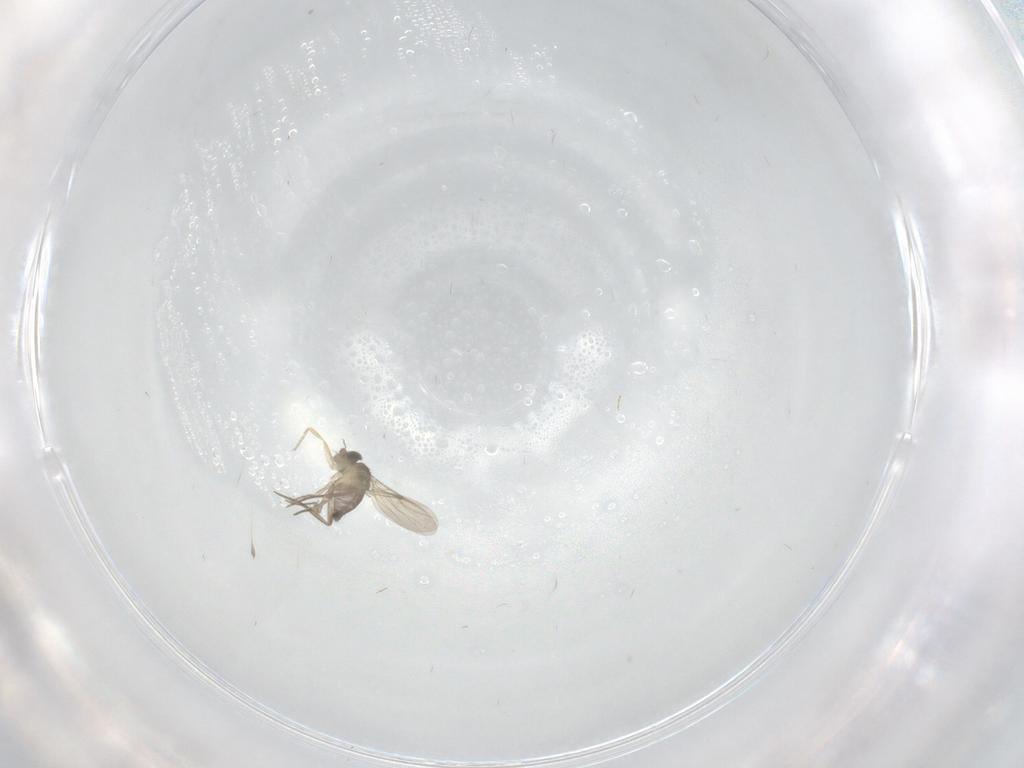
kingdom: Animalia
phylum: Arthropoda
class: Insecta
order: Diptera
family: Phoridae
